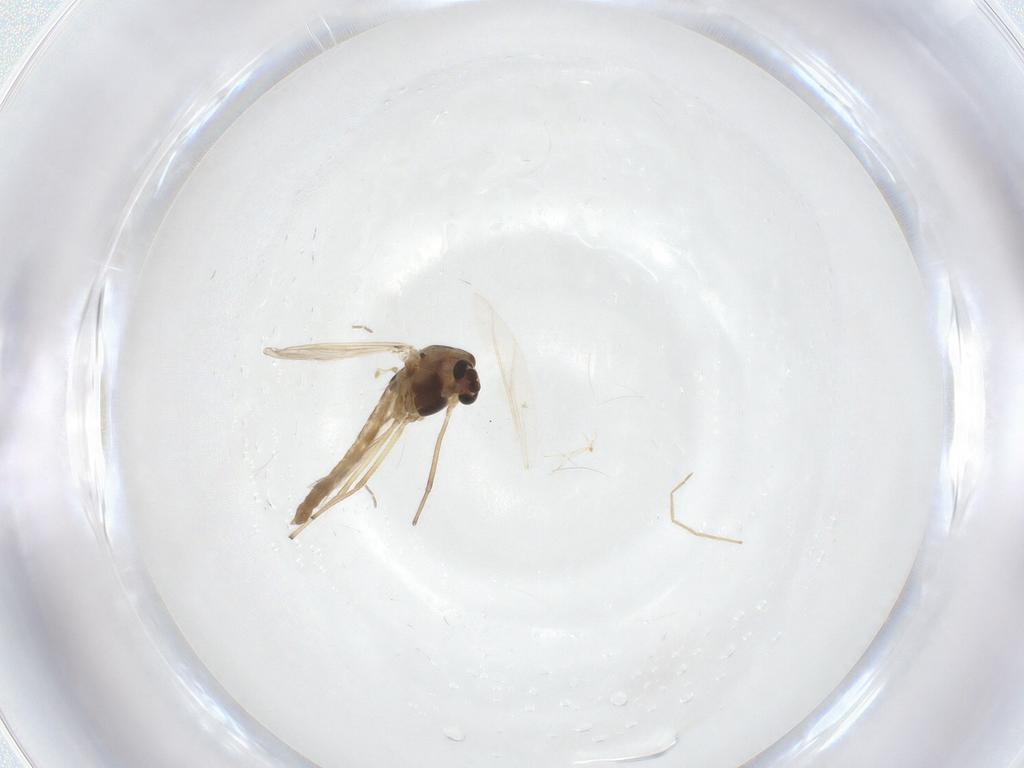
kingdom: Animalia
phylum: Arthropoda
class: Insecta
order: Diptera
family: Chironomidae
